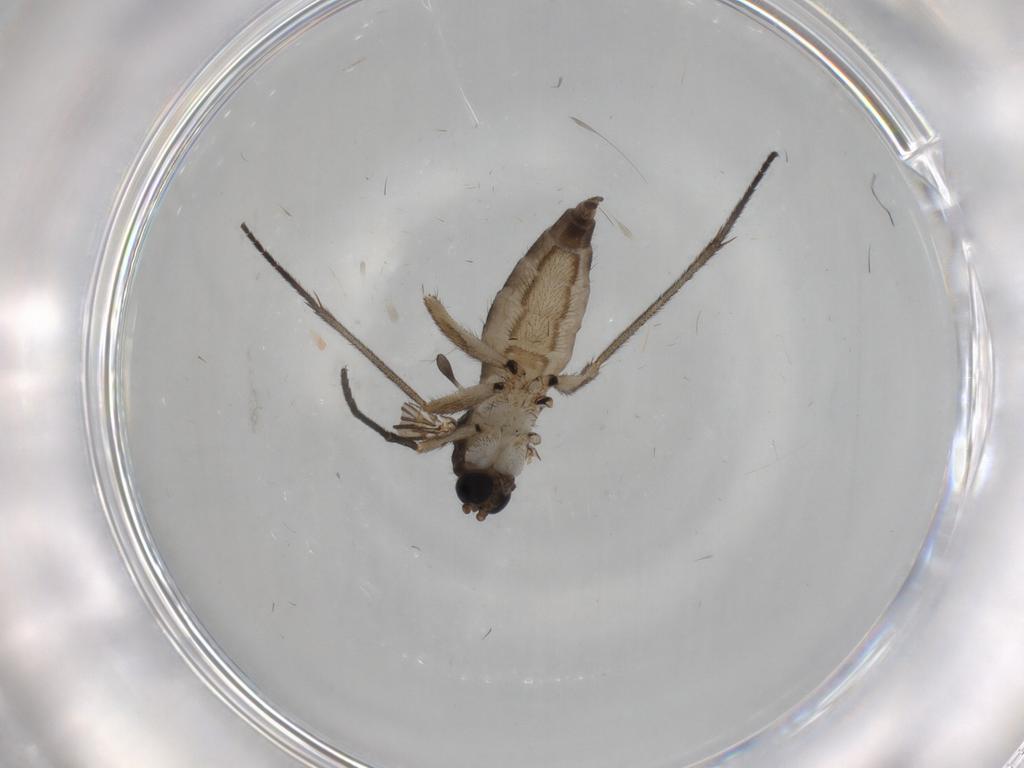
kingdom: Animalia
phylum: Arthropoda
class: Insecta
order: Diptera
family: Sciaridae
